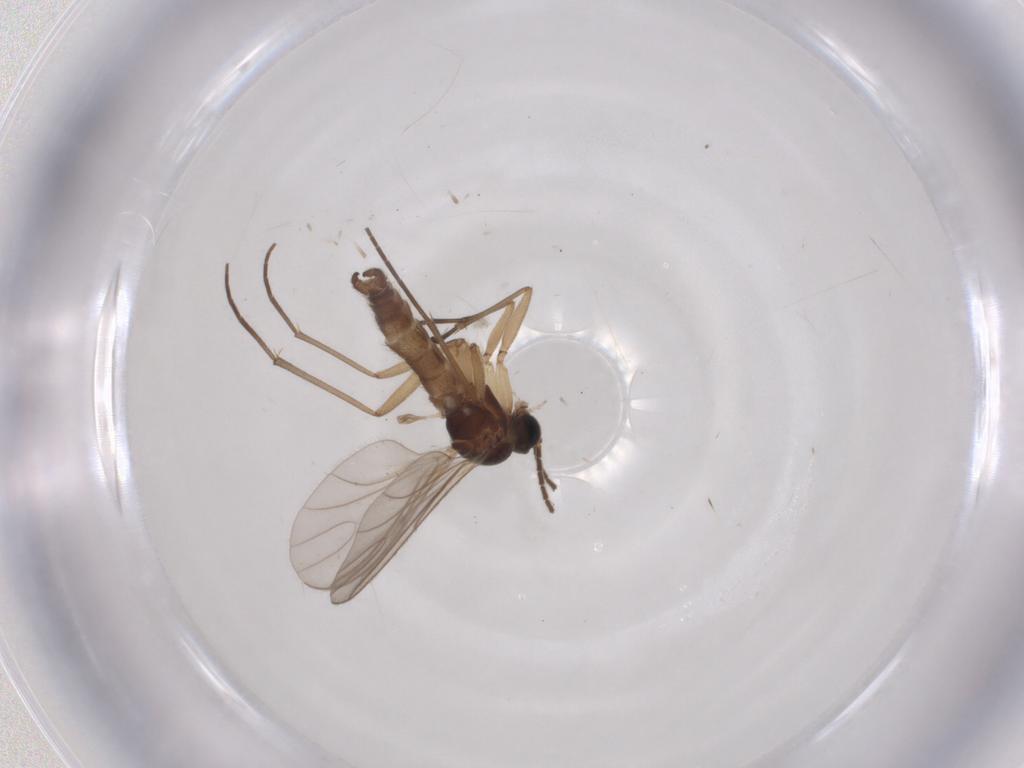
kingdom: Animalia
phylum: Arthropoda
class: Insecta
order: Diptera
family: Sciaridae
